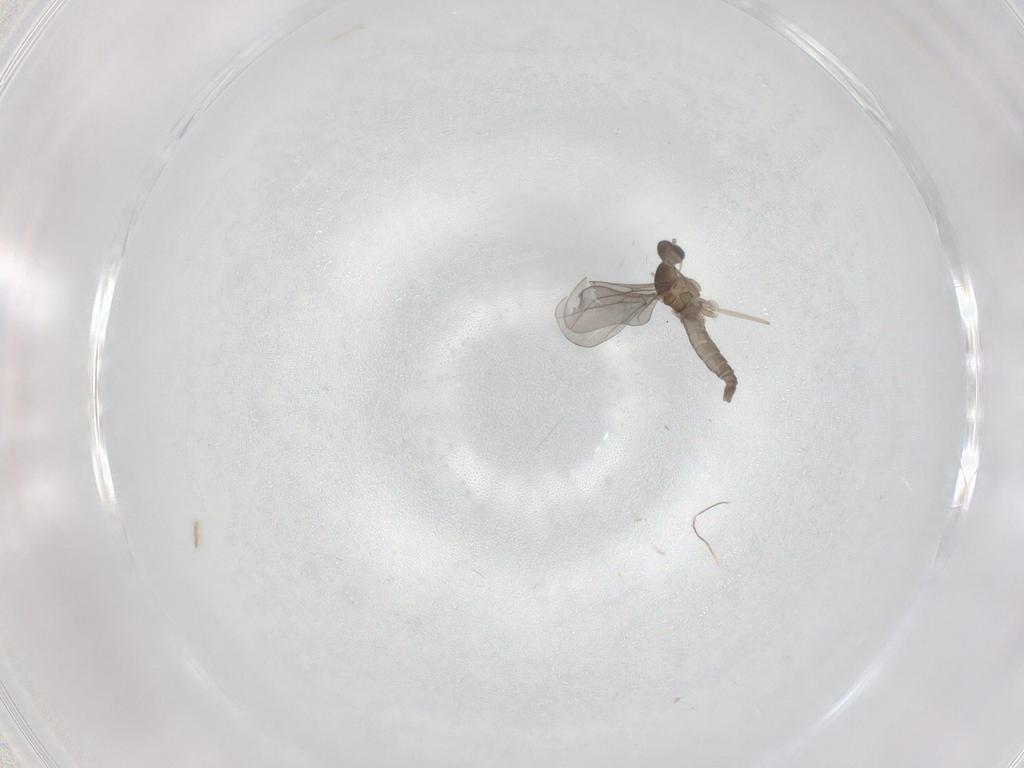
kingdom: Animalia
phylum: Arthropoda
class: Insecta
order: Diptera
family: Cecidomyiidae
